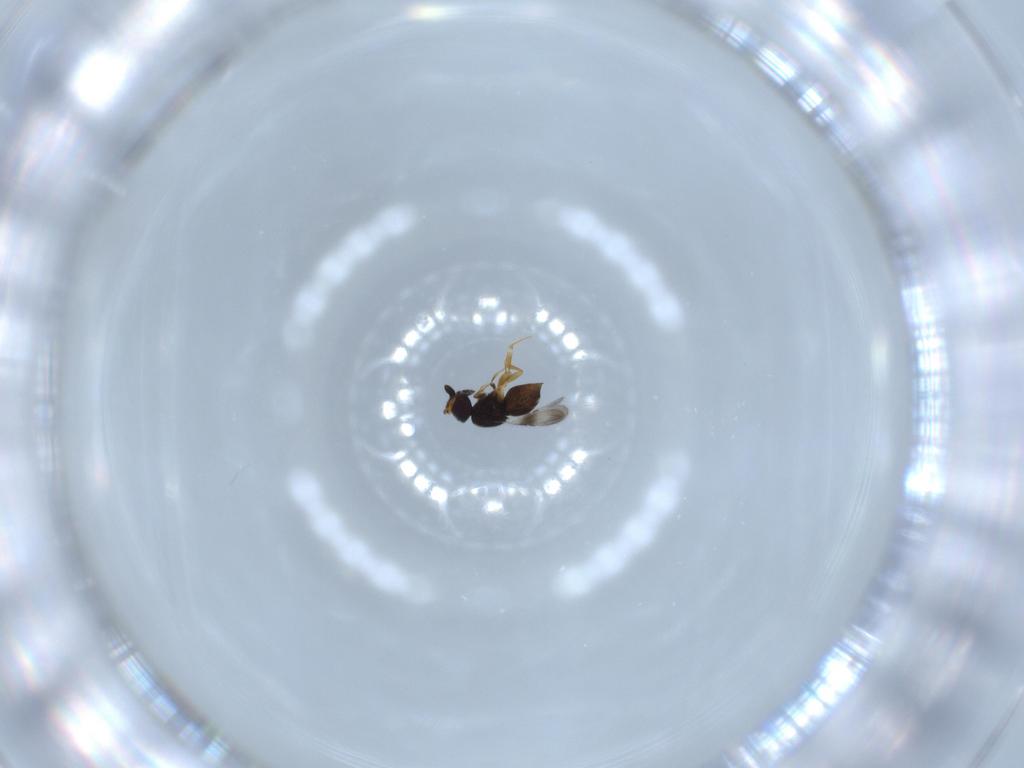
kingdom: Animalia
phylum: Arthropoda
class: Insecta
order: Hymenoptera
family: Ceraphronidae
